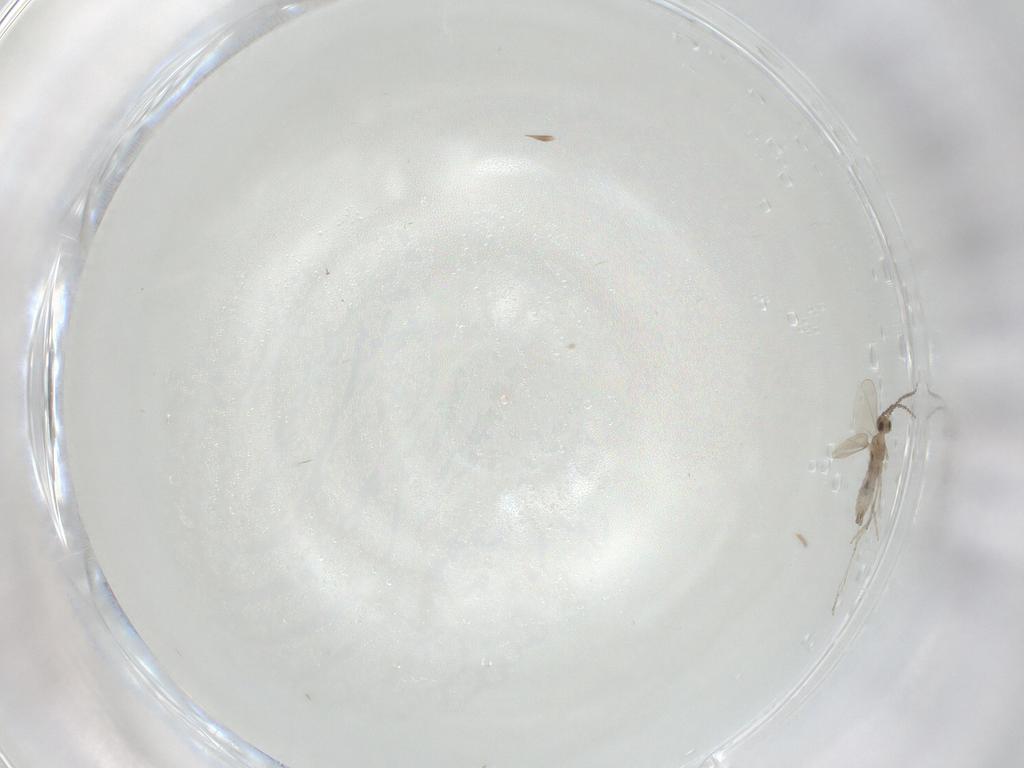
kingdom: Animalia
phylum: Arthropoda
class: Insecta
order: Diptera
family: Cecidomyiidae
